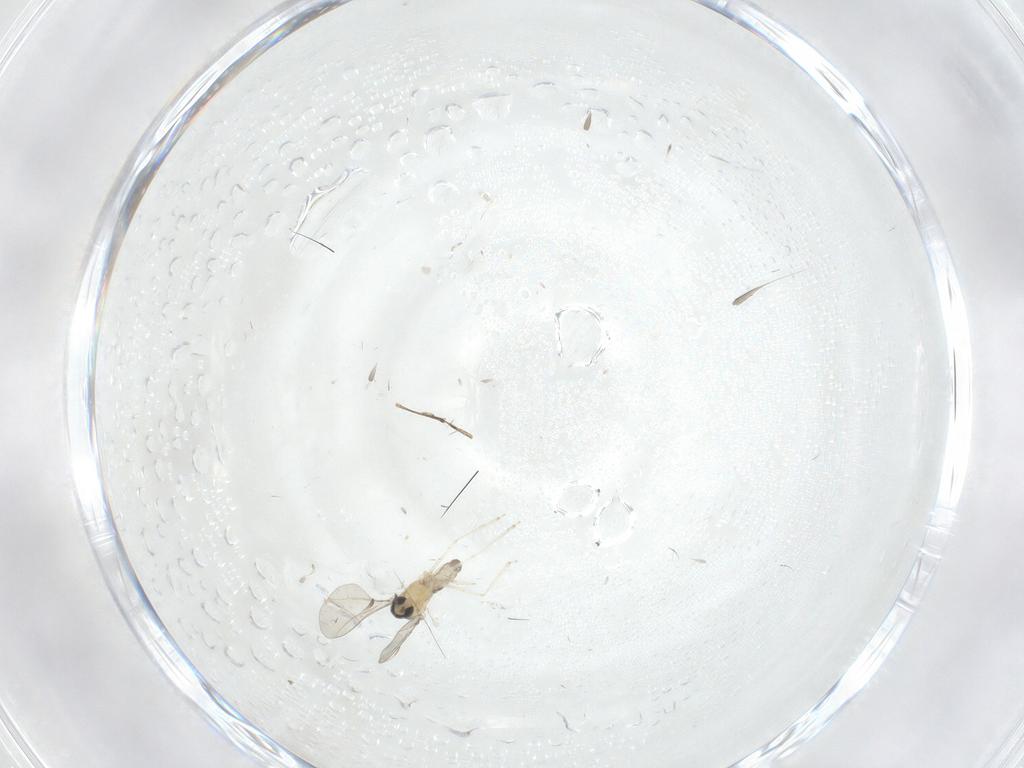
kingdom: Animalia
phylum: Arthropoda
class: Insecta
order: Diptera
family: Cecidomyiidae
